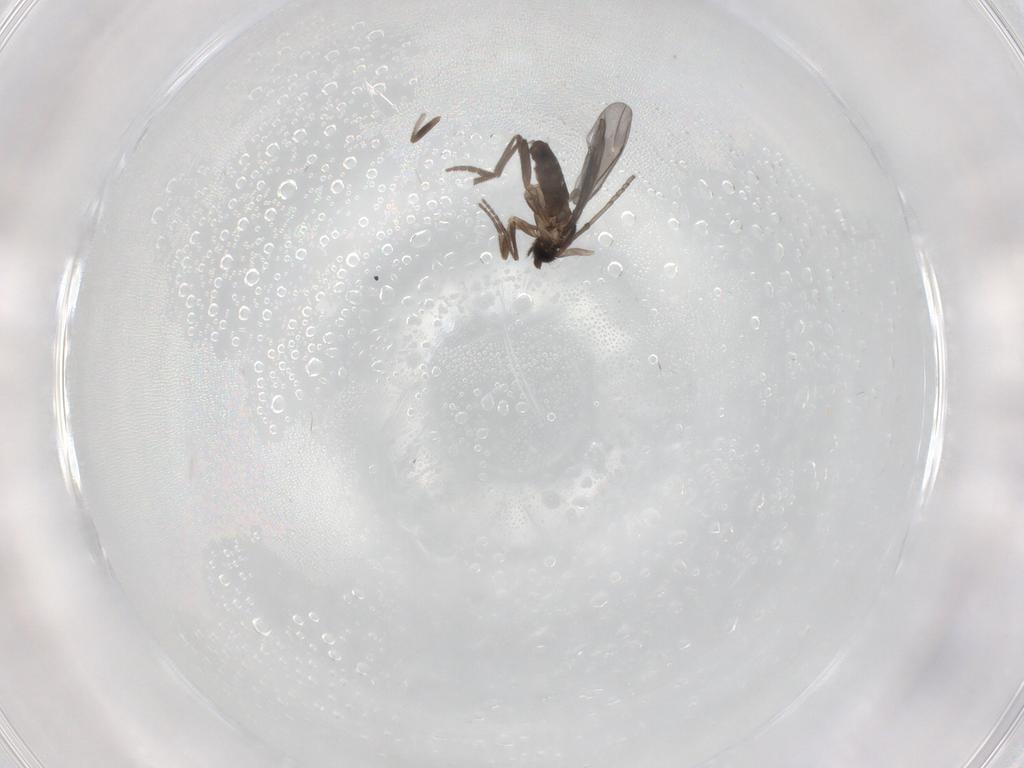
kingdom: Animalia
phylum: Arthropoda
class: Insecta
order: Diptera
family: Phoridae
